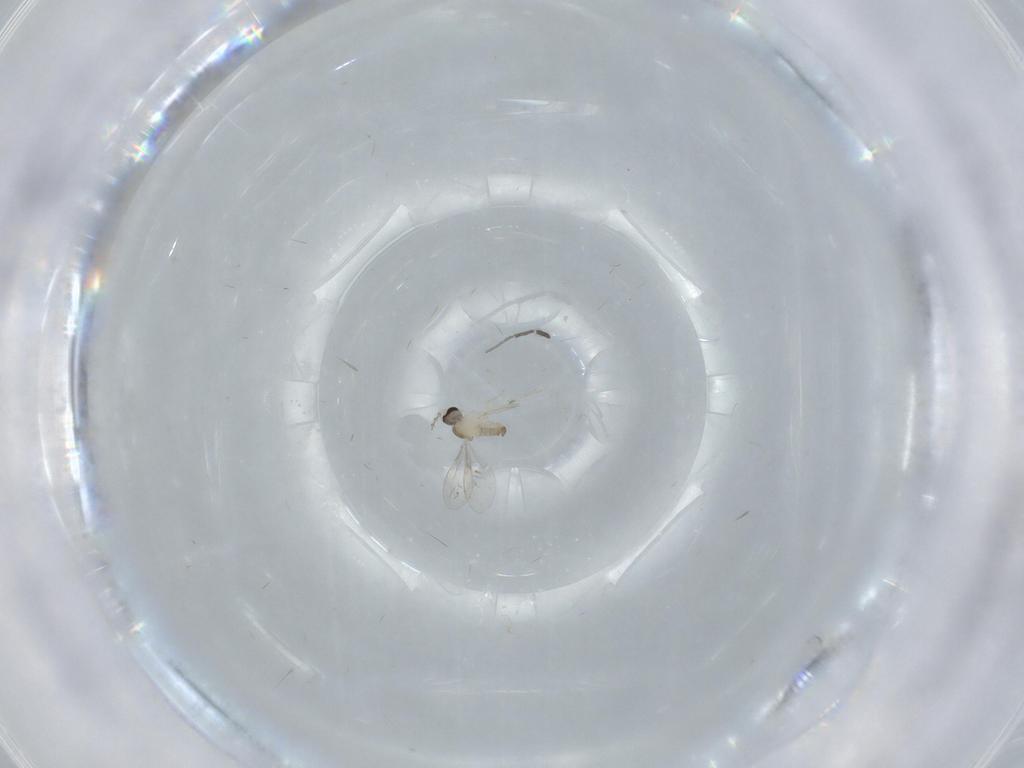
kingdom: Animalia
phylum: Arthropoda
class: Insecta
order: Diptera
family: Cecidomyiidae
